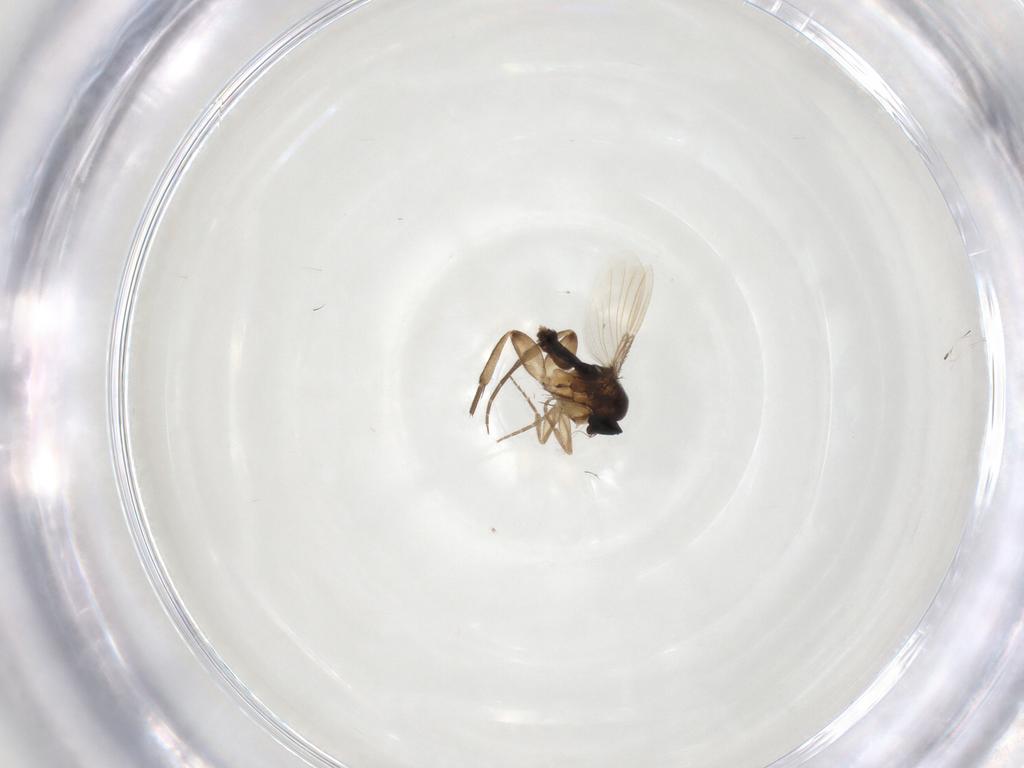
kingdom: Animalia
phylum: Arthropoda
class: Insecta
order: Diptera
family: Phoridae
